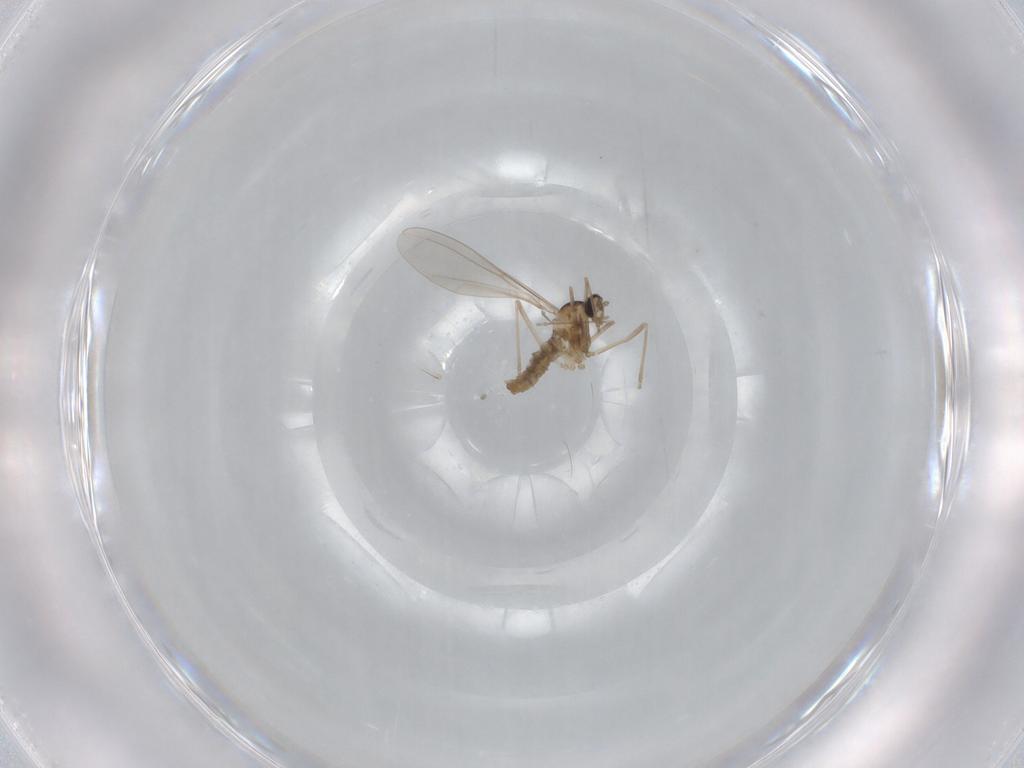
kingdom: Animalia
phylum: Arthropoda
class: Insecta
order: Diptera
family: Cecidomyiidae
